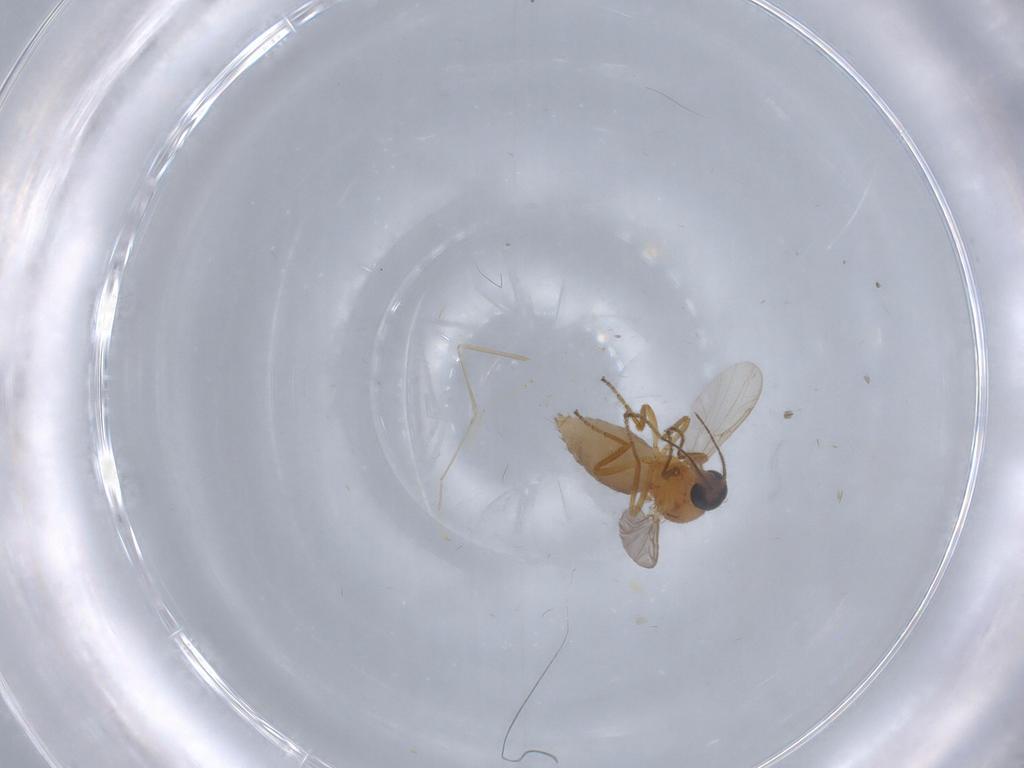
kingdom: Animalia
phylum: Arthropoda
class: Insecta
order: Diptera
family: Ceratopogonidae
